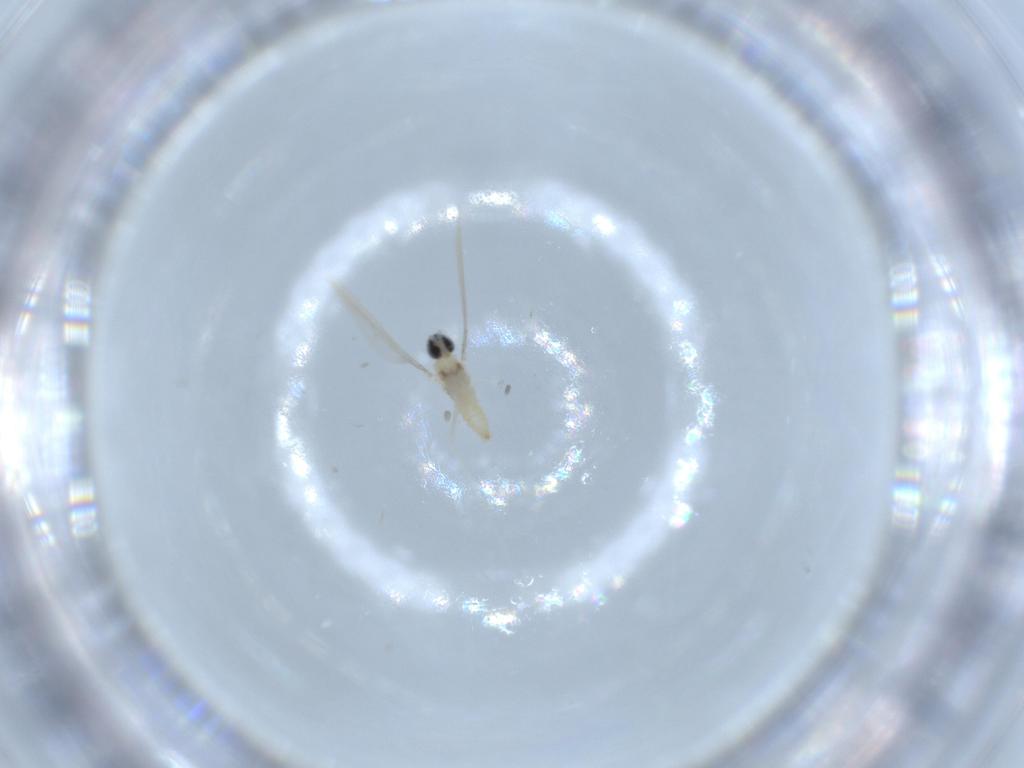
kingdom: Animalia
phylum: Arthropoda
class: Insecta
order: Diptera
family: Cecidomyiidae
